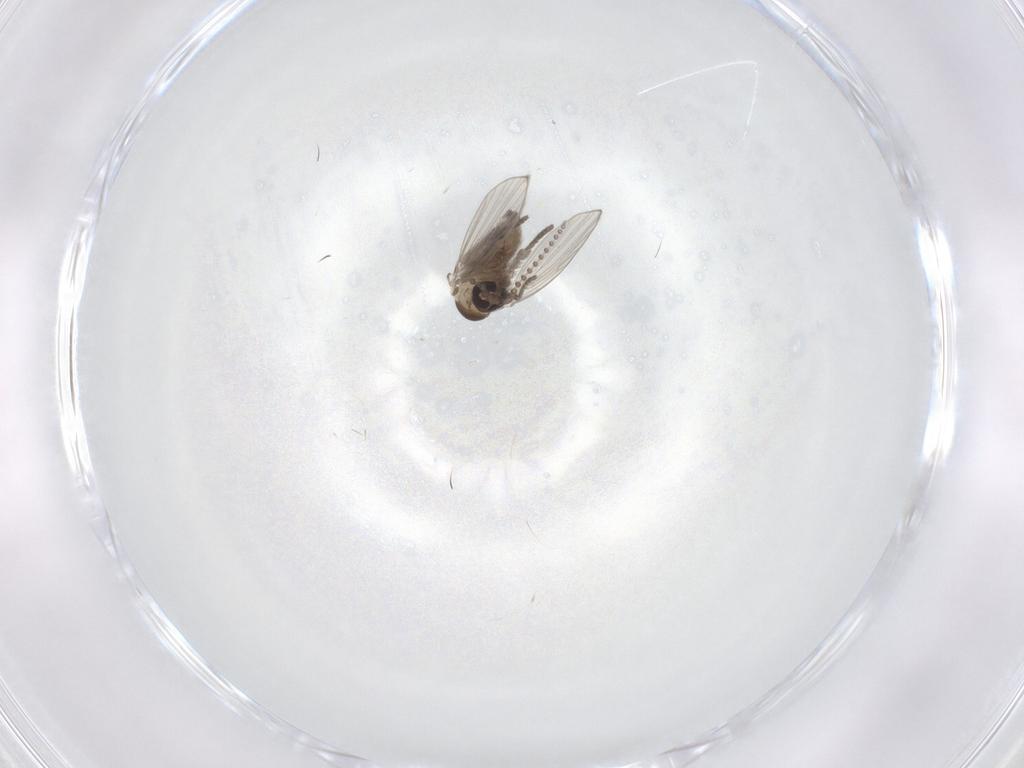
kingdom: Animalia
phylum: Arthropoda
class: Insecta
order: Diptera
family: Psychodidae
